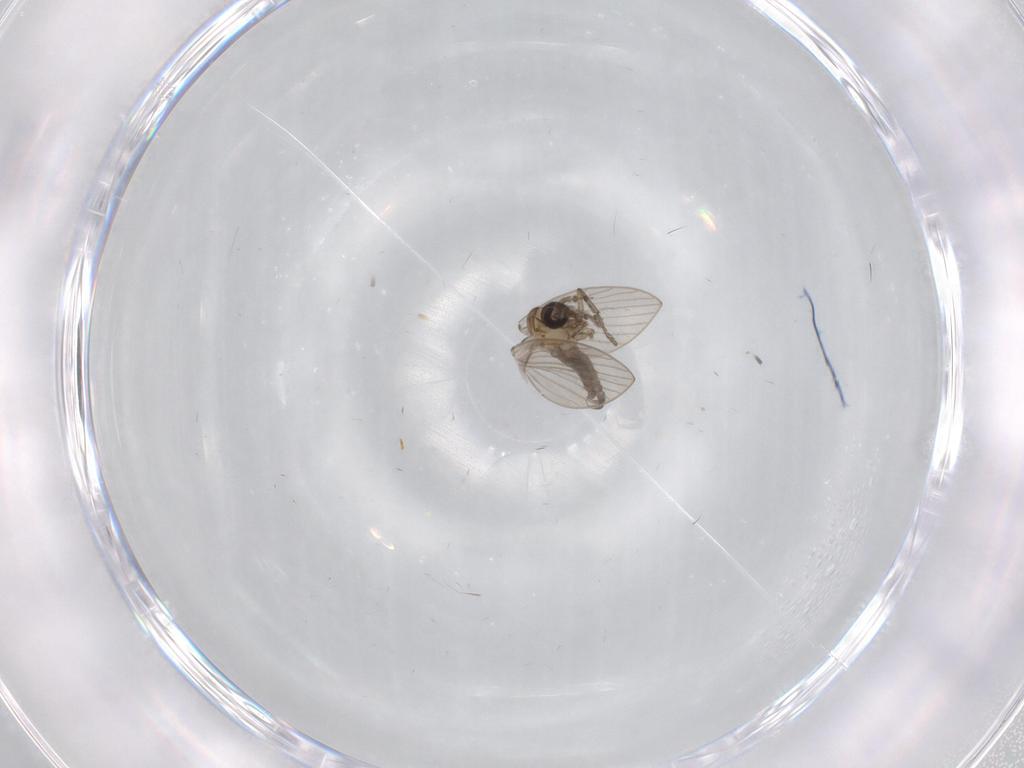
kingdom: Animalia
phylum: Arthropoda
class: Insecta
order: Diptera
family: Psychodidae
